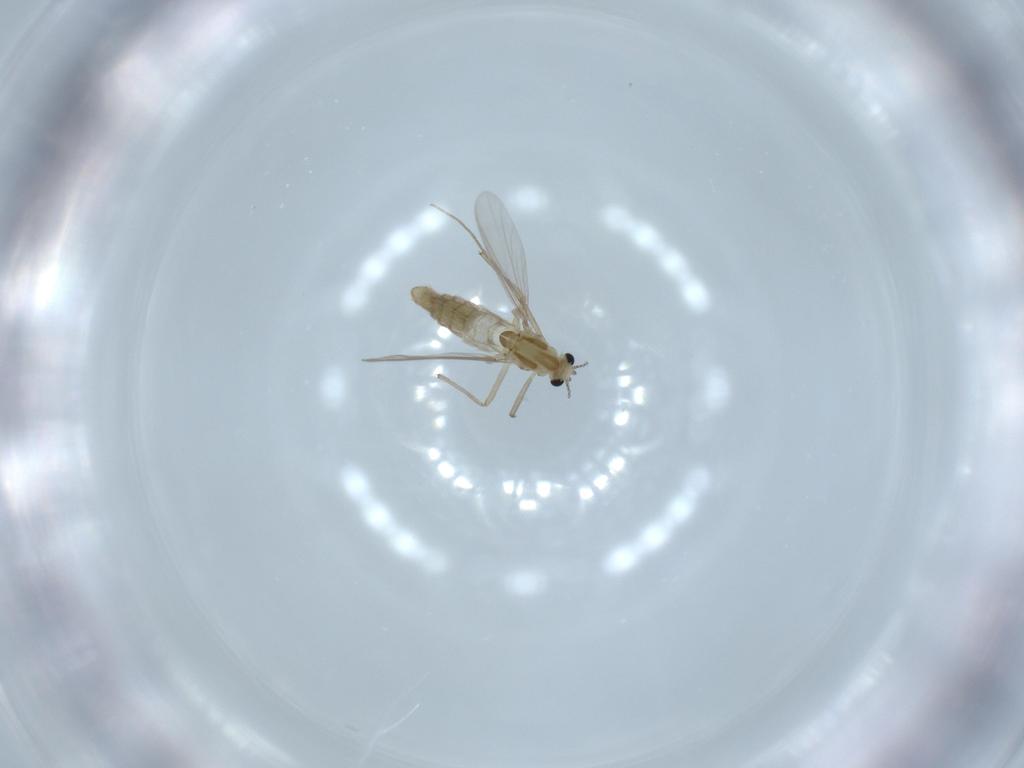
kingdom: Animalia
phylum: Arthropoda
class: Insecta
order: Diptera
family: Chironomidae
